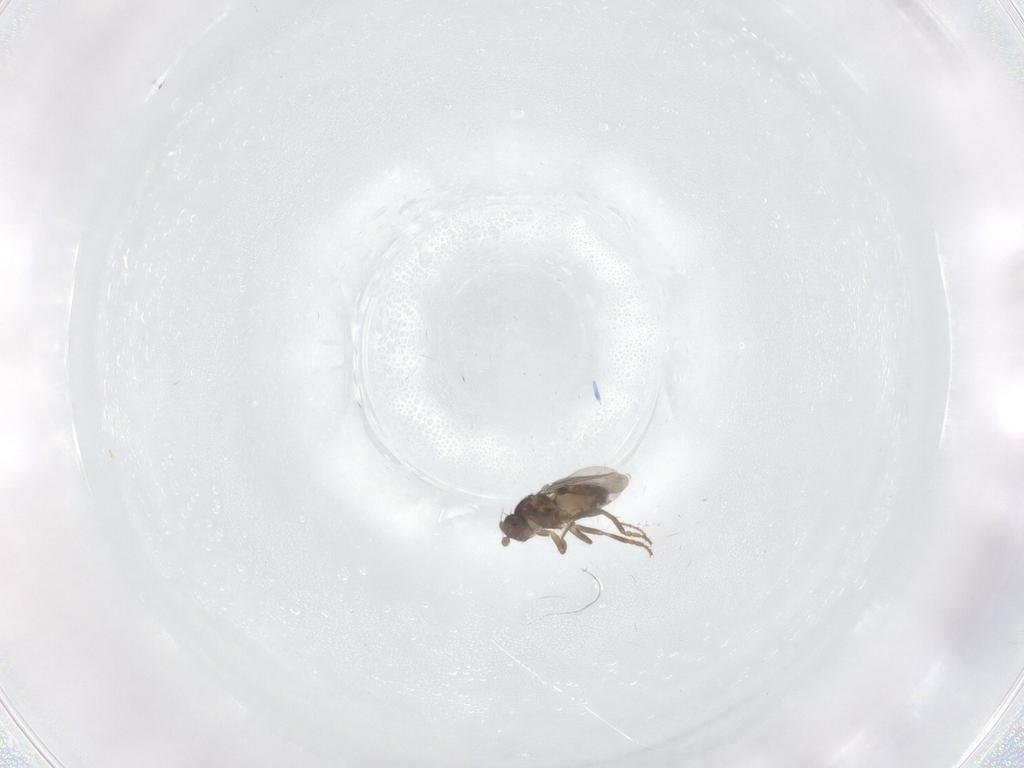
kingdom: Animalia
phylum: Arthropoda
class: Insecta
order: Diptera
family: Sphaeroceridae
